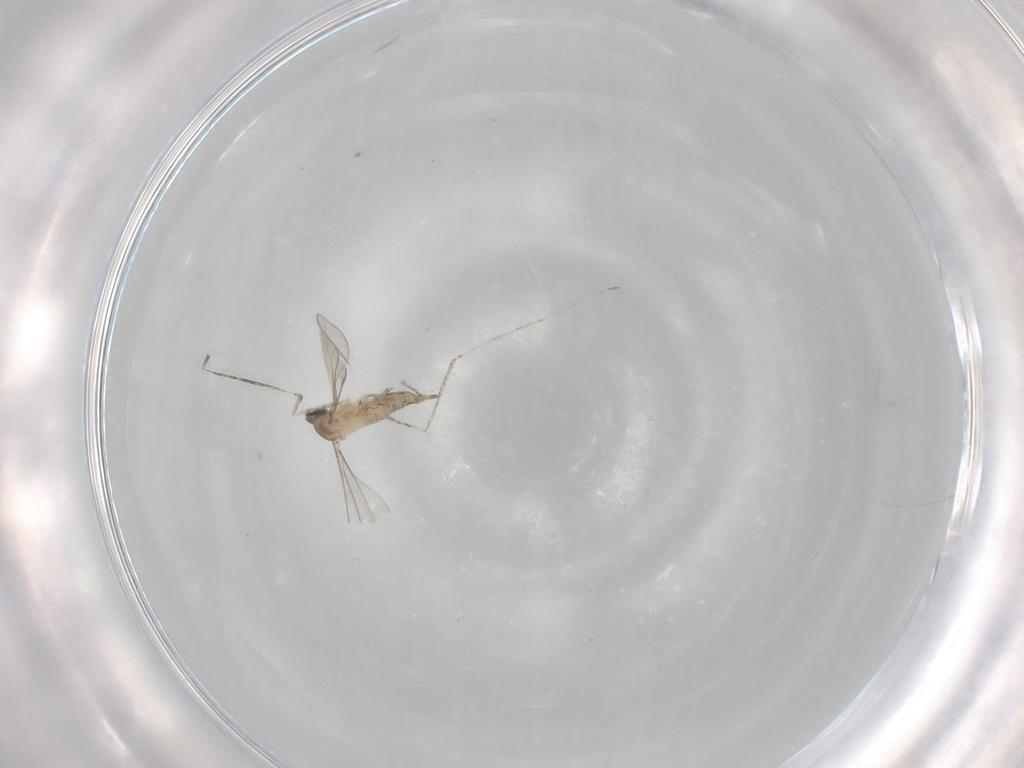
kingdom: Animalia
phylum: Arthropoda
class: Insecta
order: Diptera
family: Cecidomyiidae
